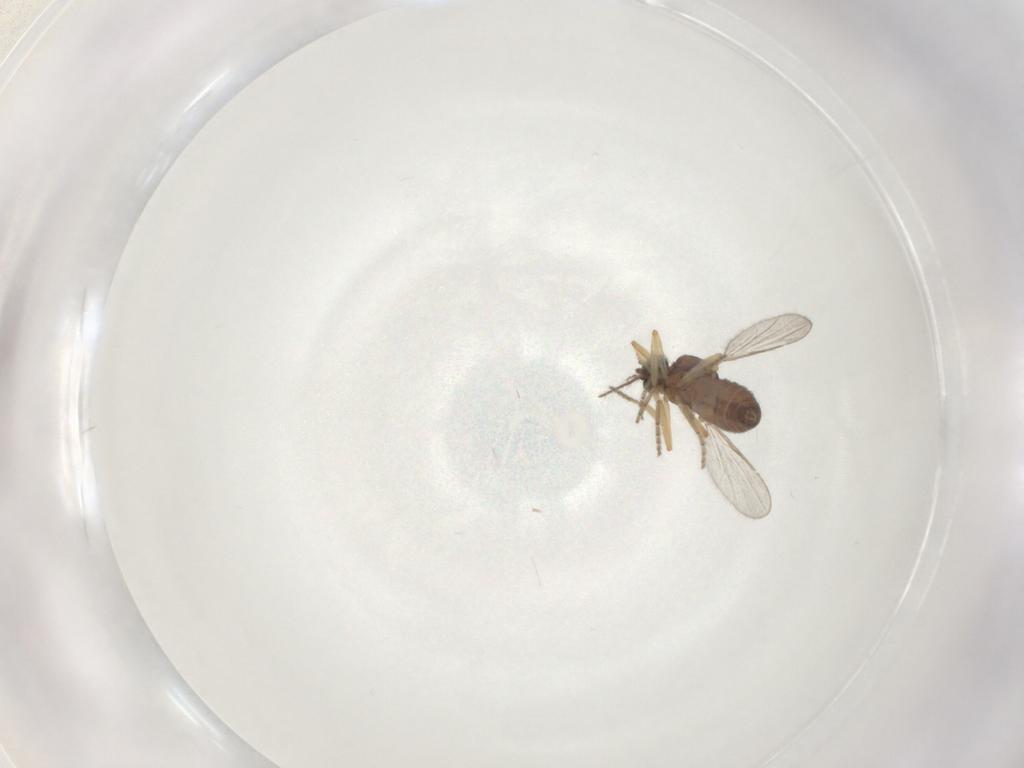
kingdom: Animalia
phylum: Arthropoda
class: Insecta
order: Diptera
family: Ceratopogonidae
